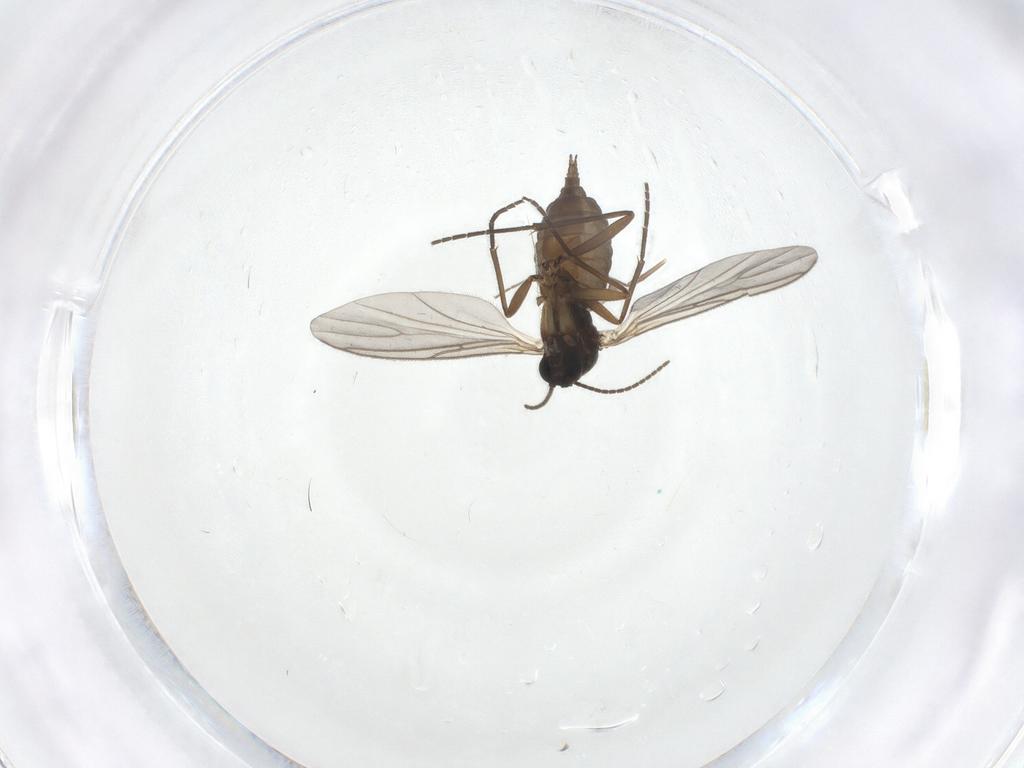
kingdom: Animalia
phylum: Arthropoda
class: Insecta
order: Diptera
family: Sciaridae
